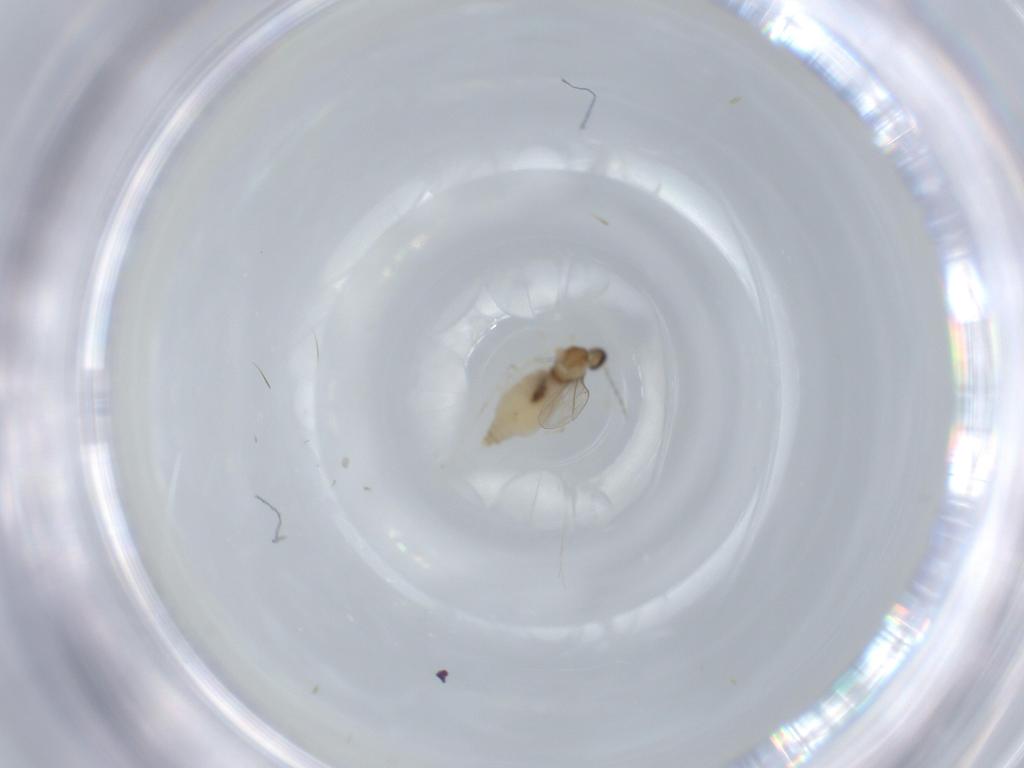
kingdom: Animalia
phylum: Arthropoda
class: Insecta
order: Diptera
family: Cecidomyiidae
